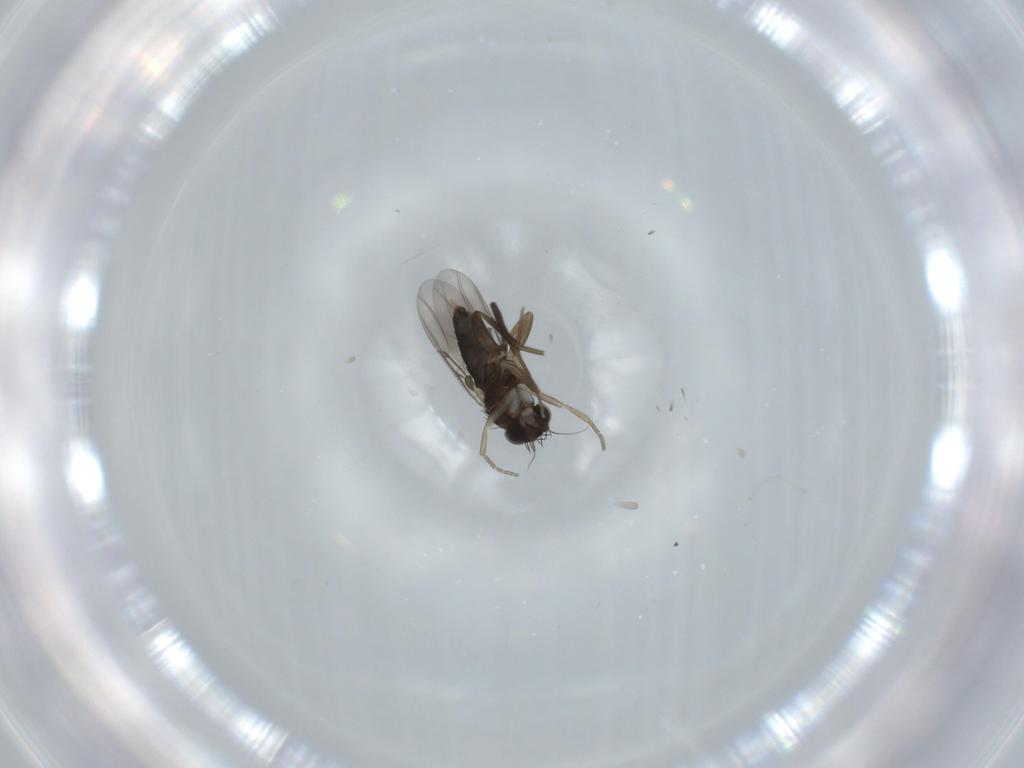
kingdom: Animalia
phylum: Arthropoda
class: Insecta
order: Diptera
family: Phoridae
